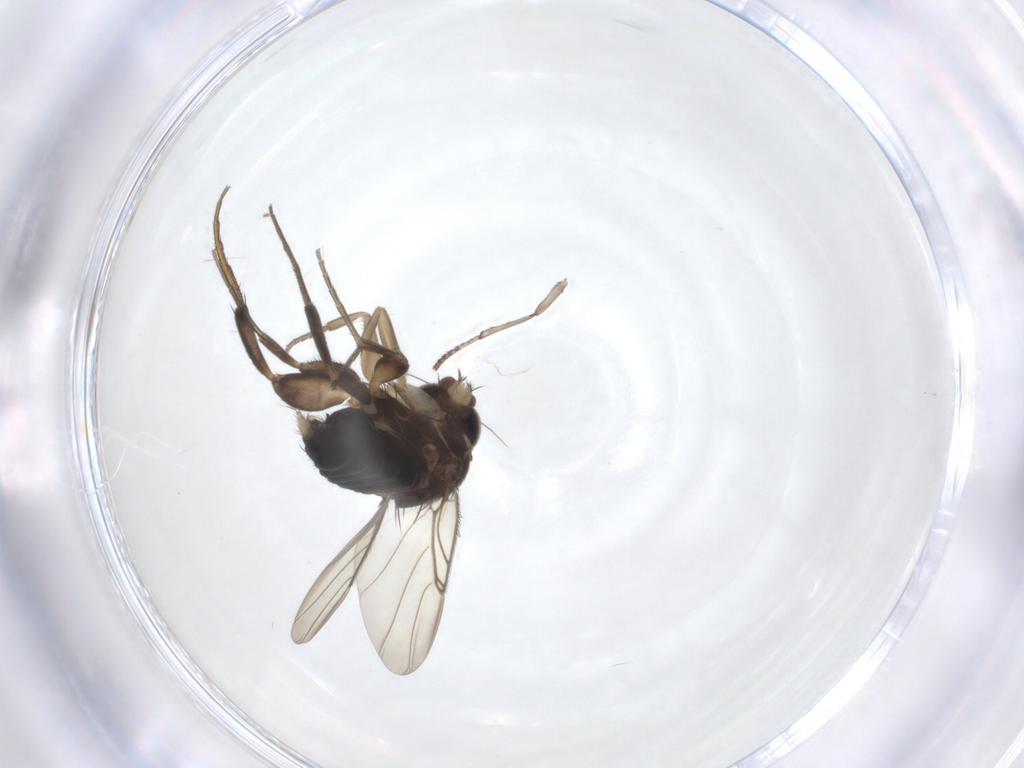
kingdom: Animalia
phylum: Arthropoda
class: Insecta
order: Diptera
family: Phoridae
